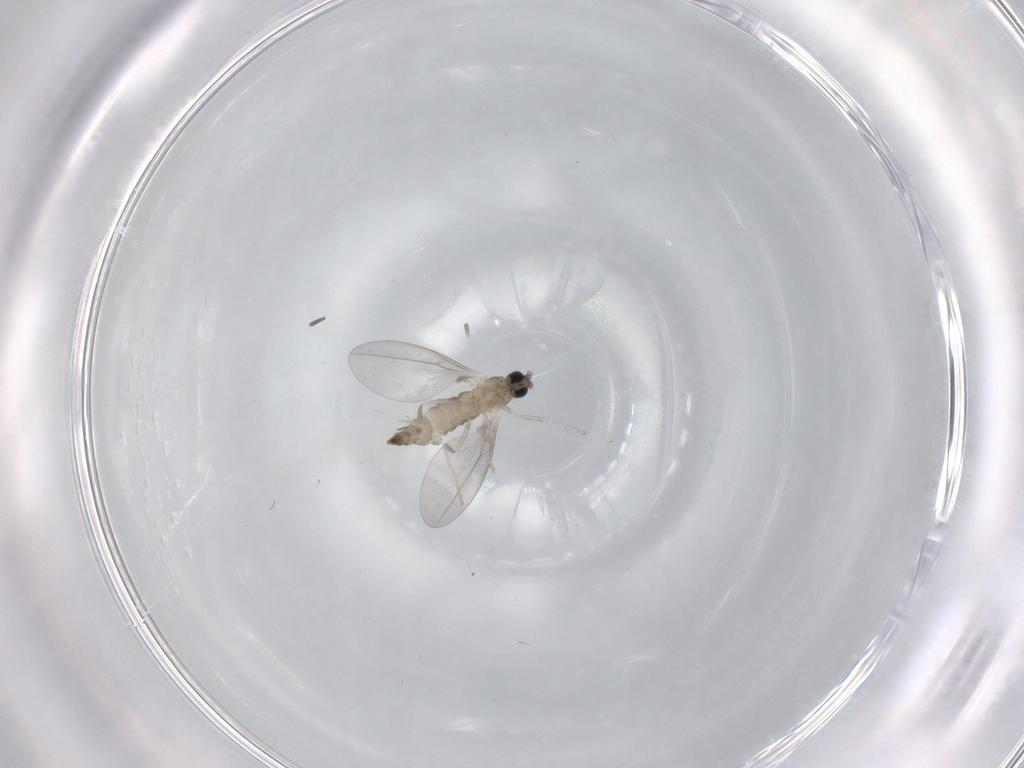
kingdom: Animalia
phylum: Arthropoda
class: Insecta
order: Diptera
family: Cecidomyiidae
